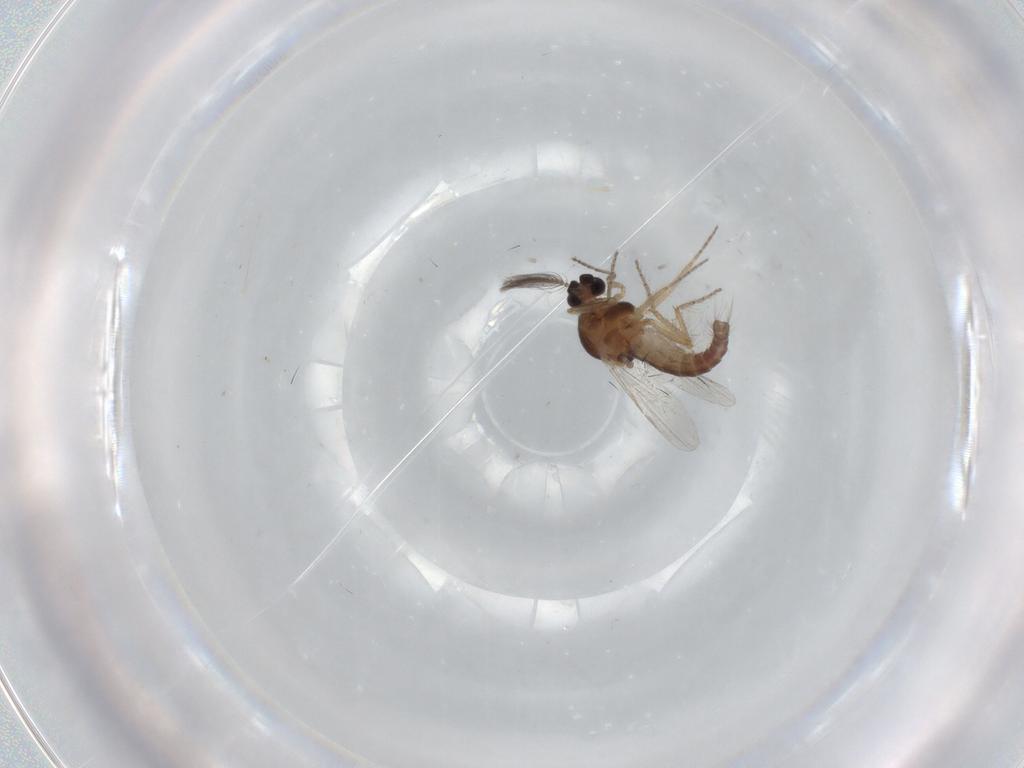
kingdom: Animalia
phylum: Arthropoda
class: Insecta
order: Diptera
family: Ceratopogonidae
